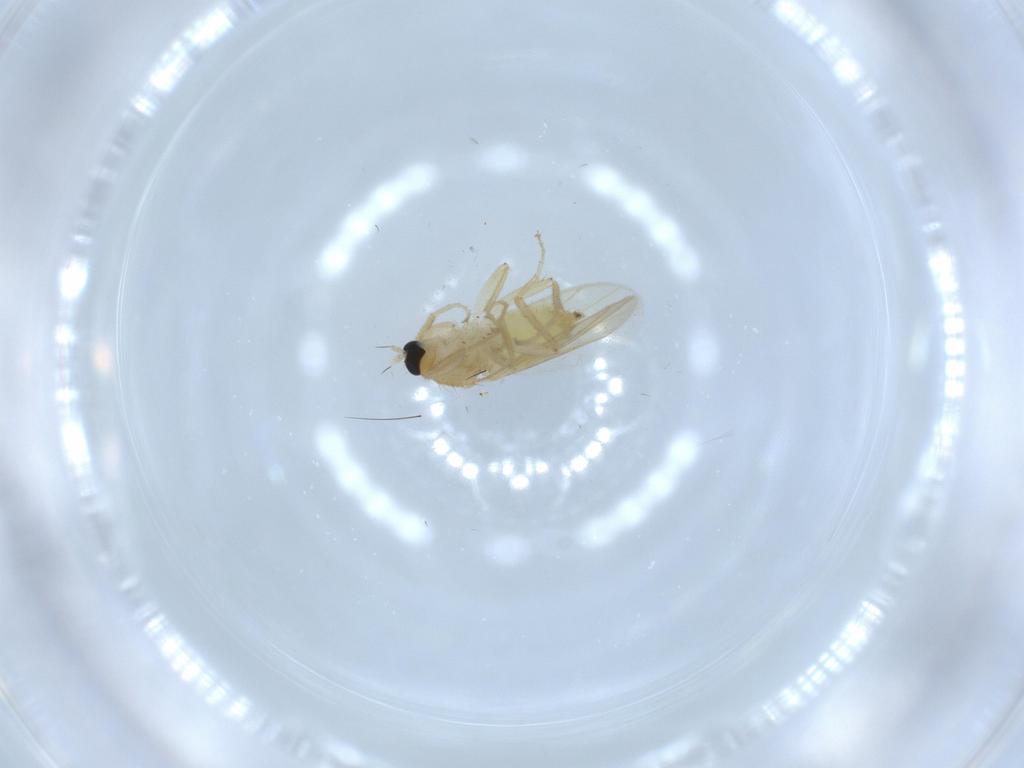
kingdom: Animalia
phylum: Arthropoda
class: Insecta
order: Diptera
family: Hybotidae
